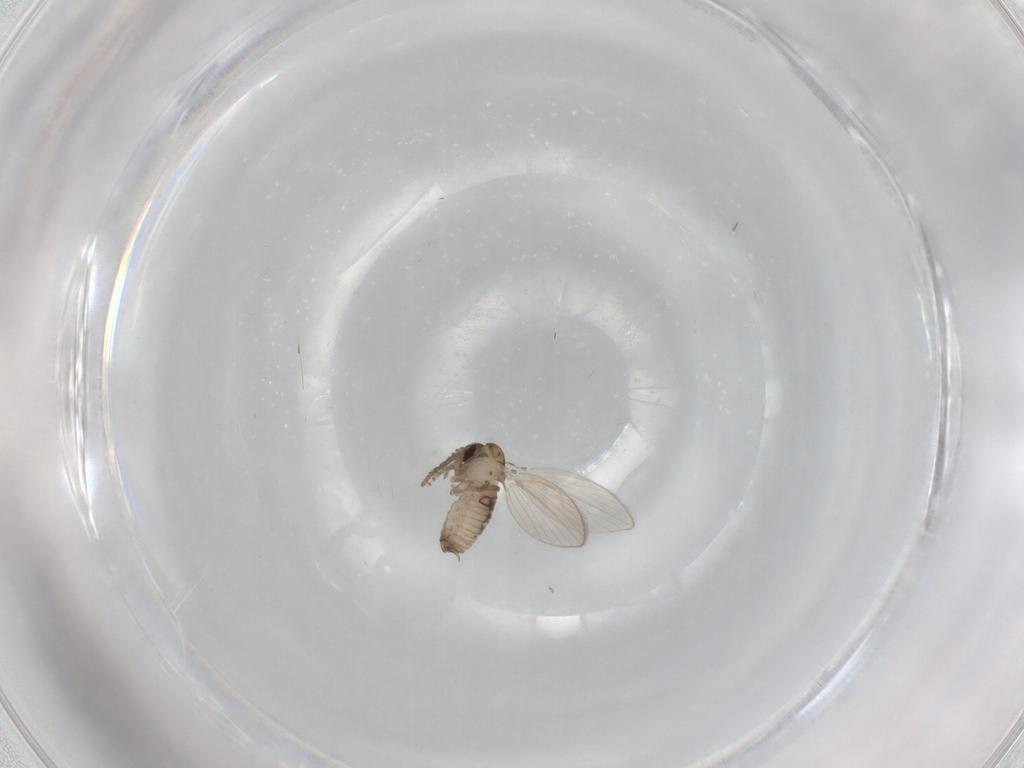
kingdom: Animalia
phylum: Arthropoda
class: Insecta
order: Diptera
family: Psychodidae
